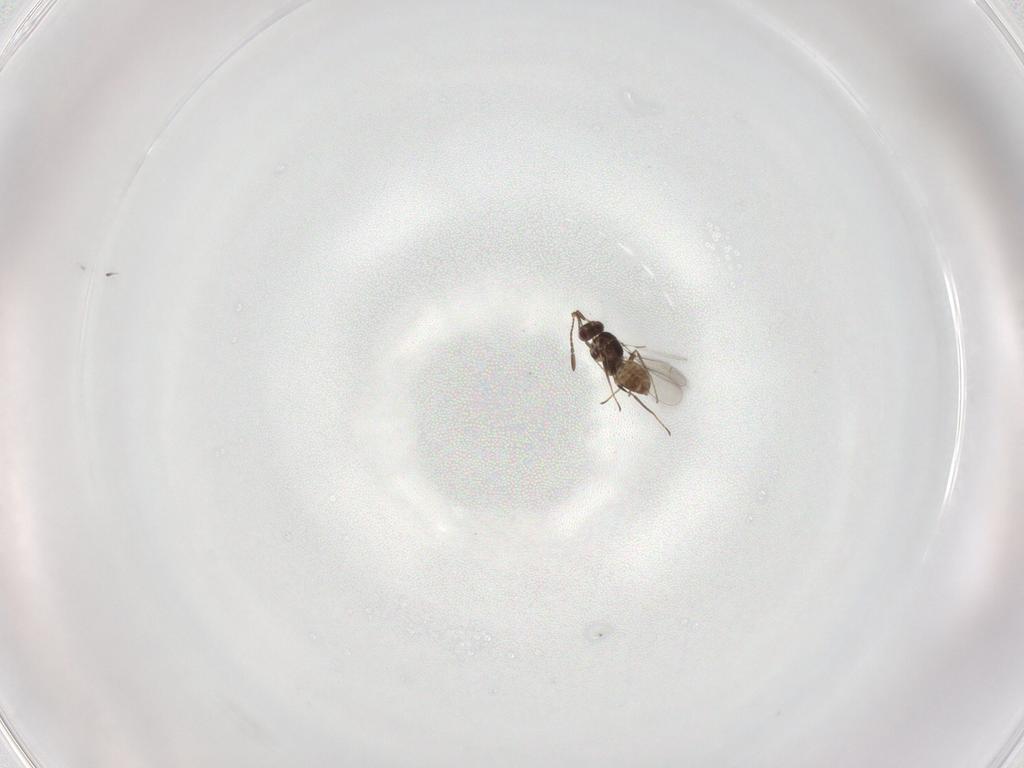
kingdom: Animalia
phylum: Arthropoda
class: Insecta
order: Hymenoptera
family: Mymaridae
